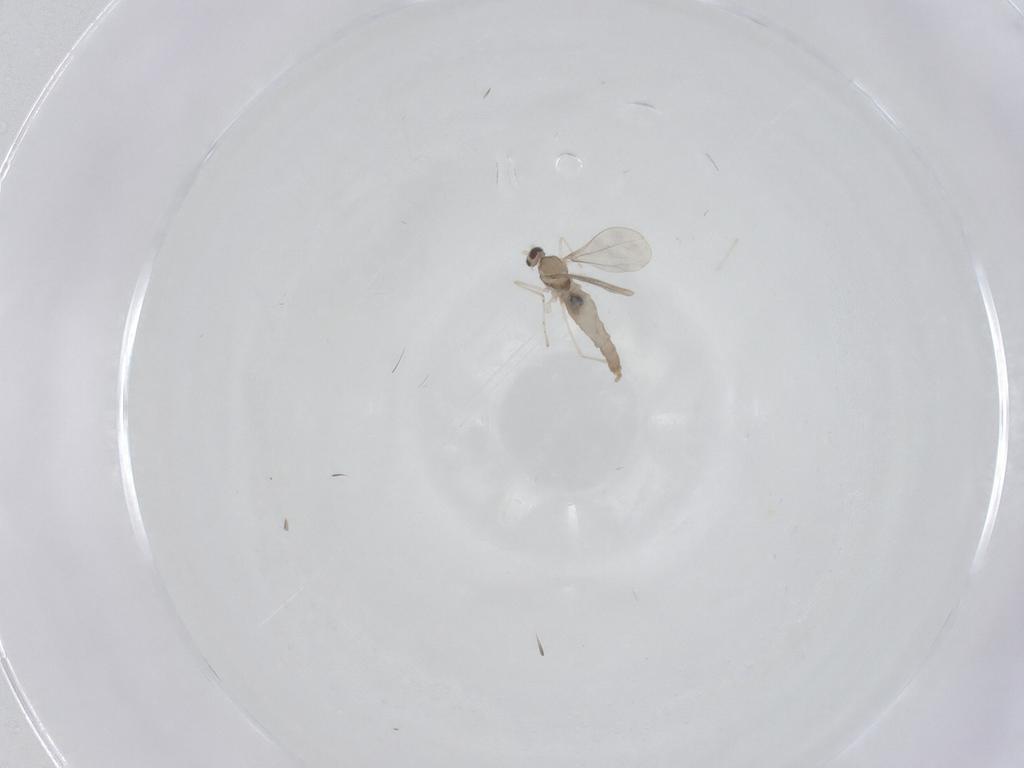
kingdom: Animalia
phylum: Arthropoda
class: Insecta
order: Diptera
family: Cecidomyiidae
